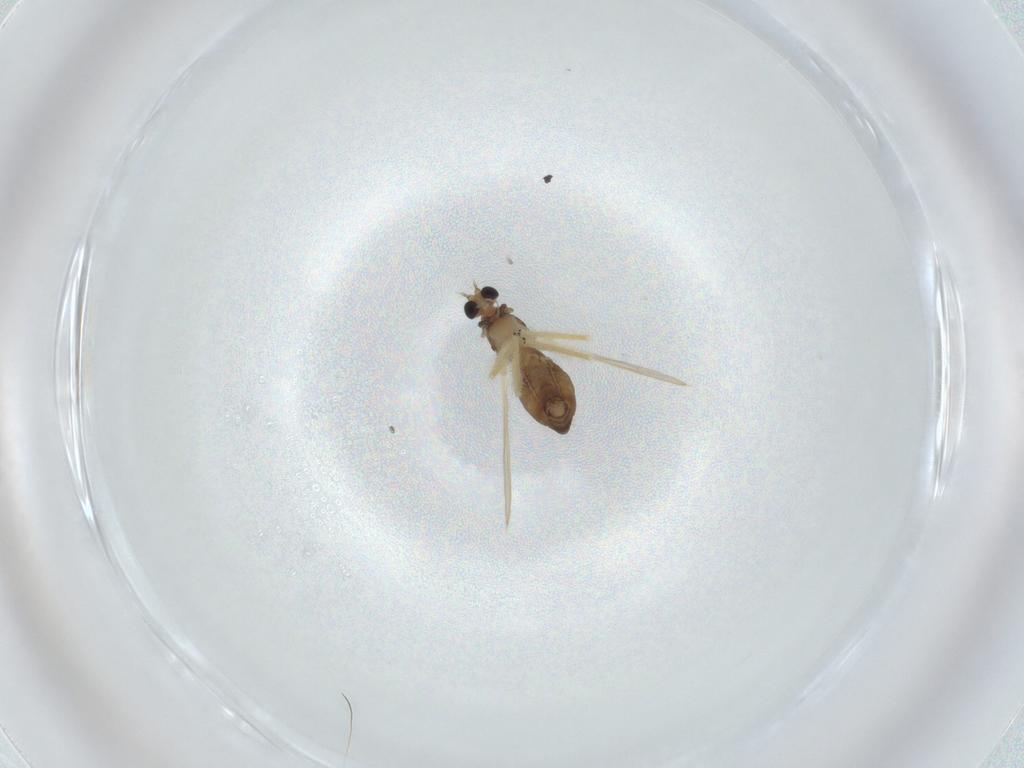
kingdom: Animalia
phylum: Arthropoda
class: Insecta
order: Diptera
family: Chironomidae
